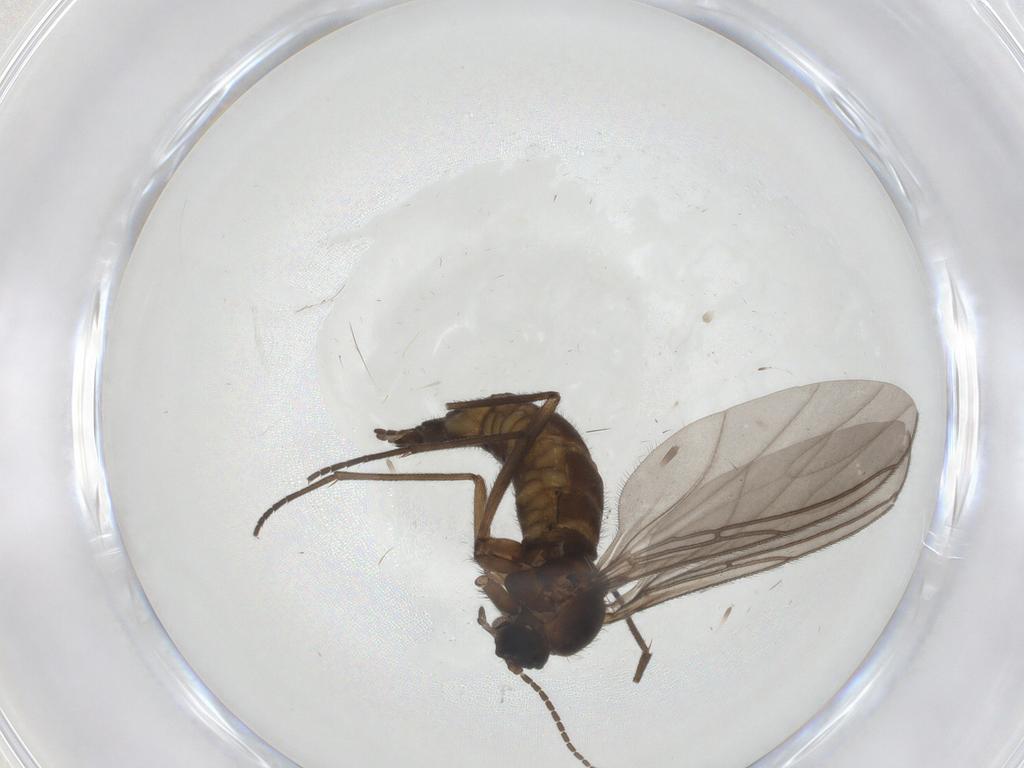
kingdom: Animalia
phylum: Arthropoda
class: Insecta
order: Diptera
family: Sciaridae
